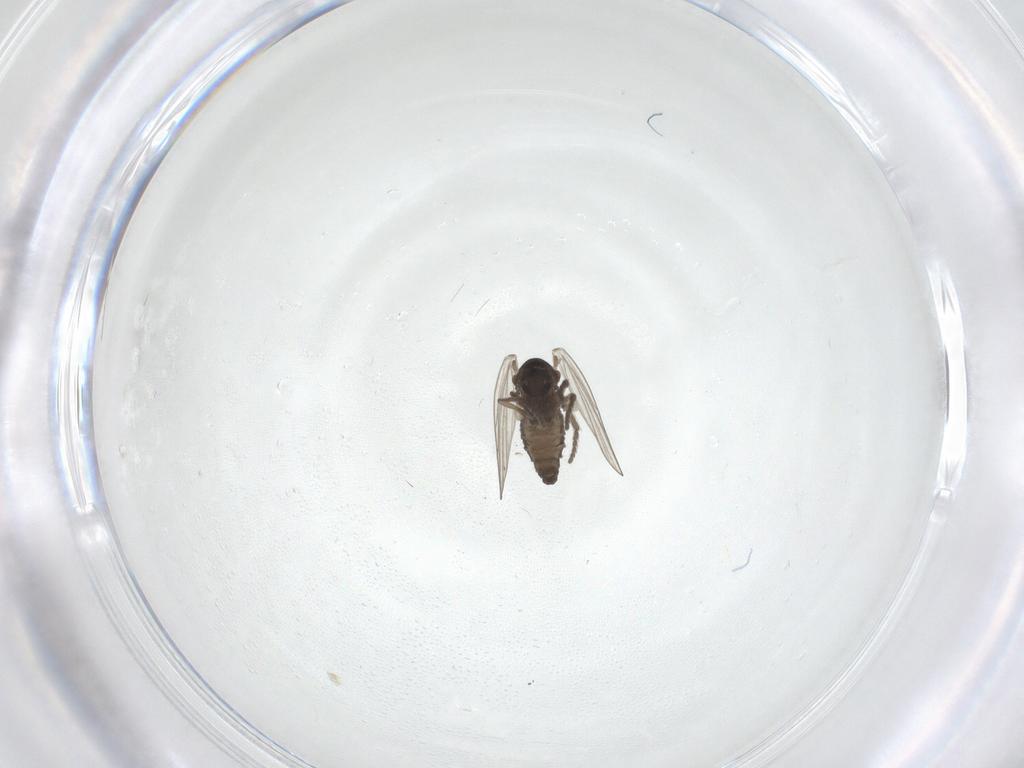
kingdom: Animalia
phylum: Arthropoda
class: Insecta
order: Diptera
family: Psychodidae
